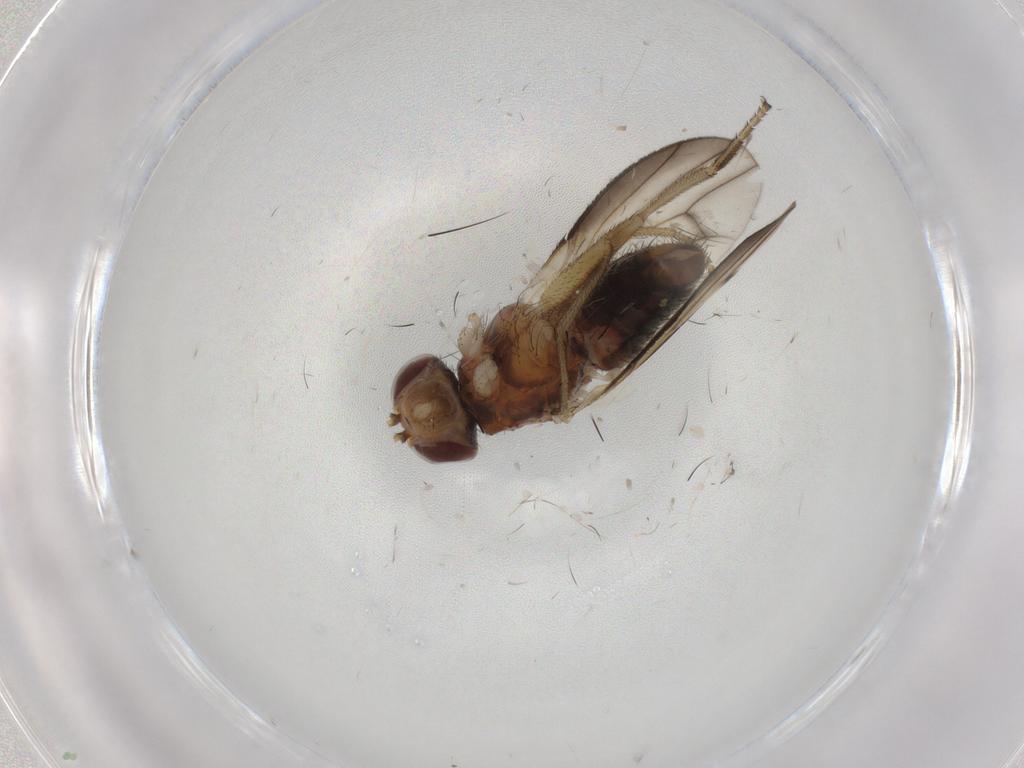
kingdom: Animalia
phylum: Arthropoda
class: Insecta
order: Diptera
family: Heleomyzidae
